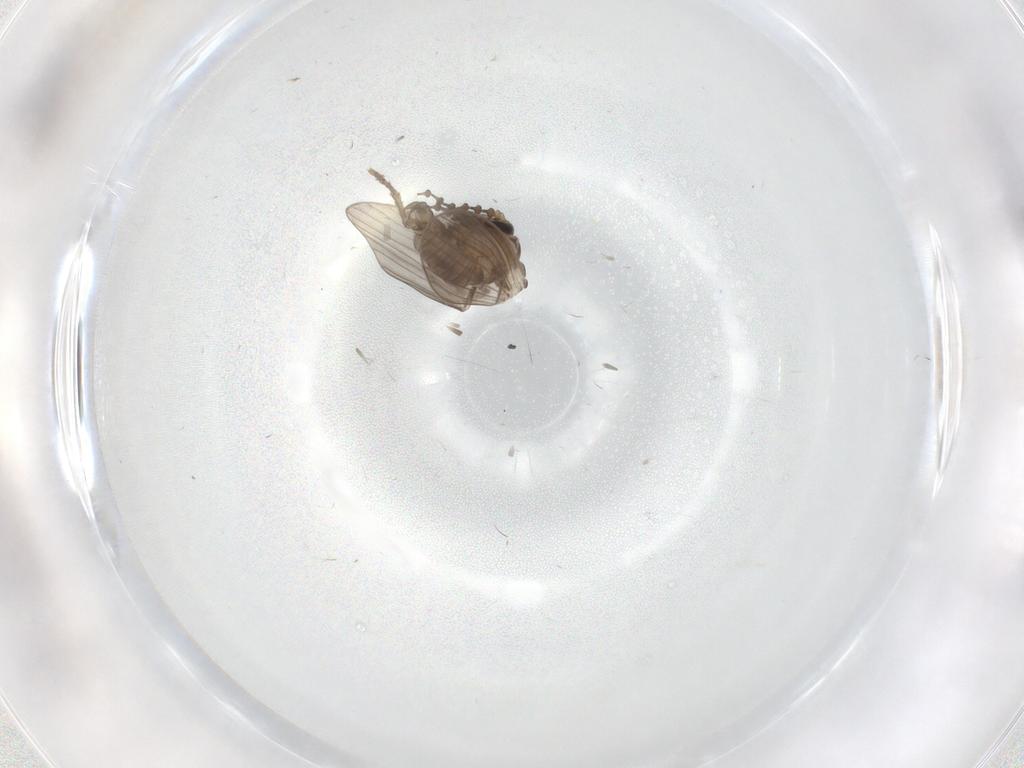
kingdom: Animalia
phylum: Arthropoda
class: Insecta
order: Diptera
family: Psychodidae
